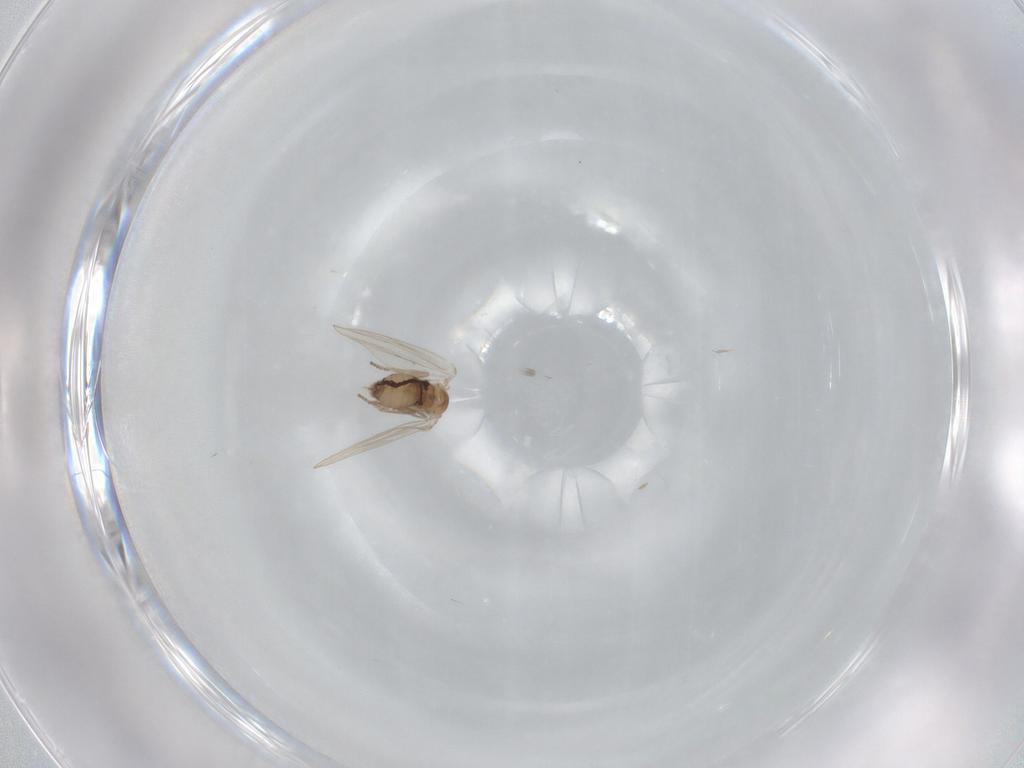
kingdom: Animalia
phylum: Arthropoda
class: Insecta
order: Diptera
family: Psychodidae
